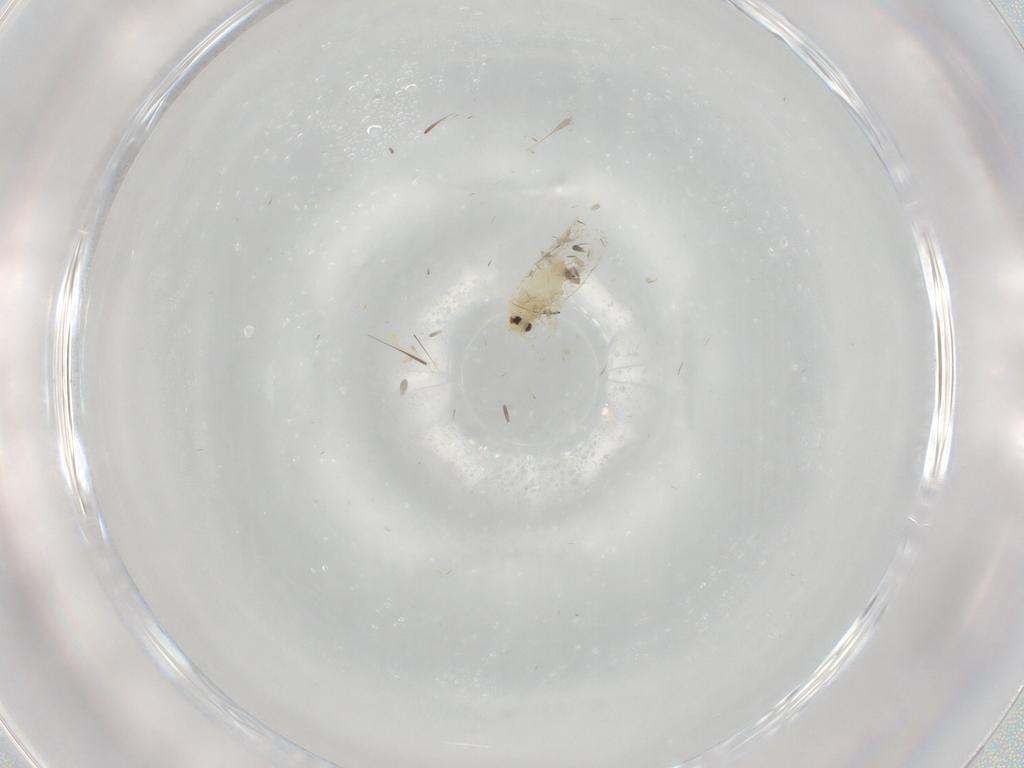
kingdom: Animalia
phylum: Arthropoda
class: Insecta
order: Hemiptera
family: Aleyrodidae
